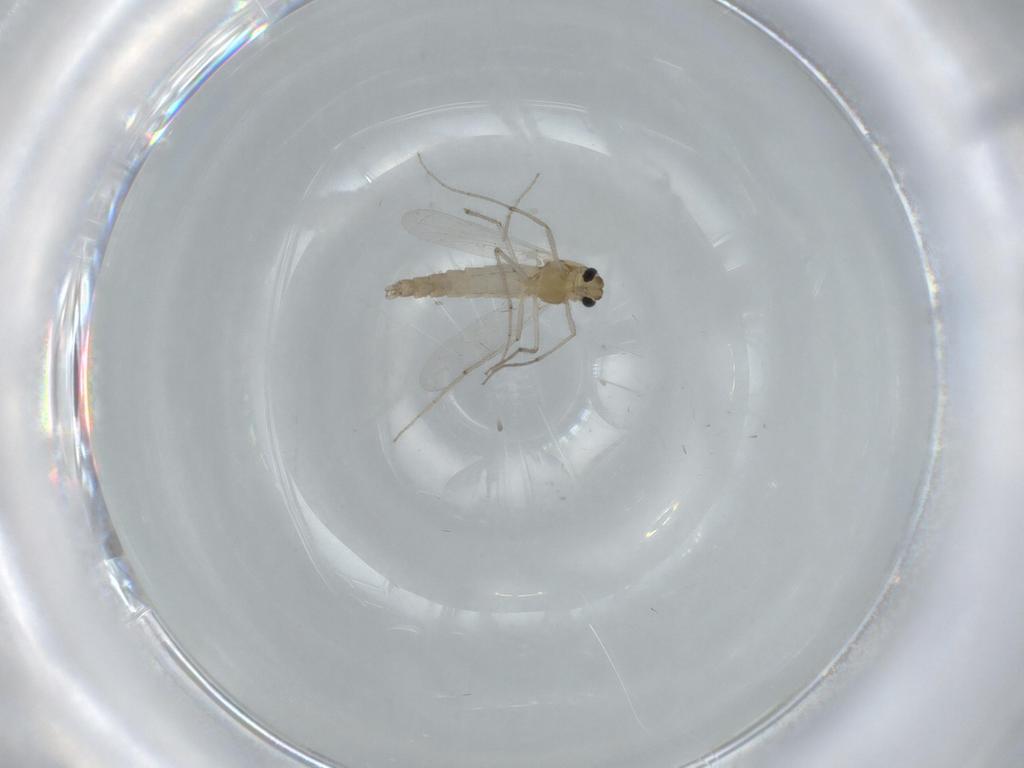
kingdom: Animalia
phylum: Arthropoda
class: Insecta
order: Diptera
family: Chironomidae
